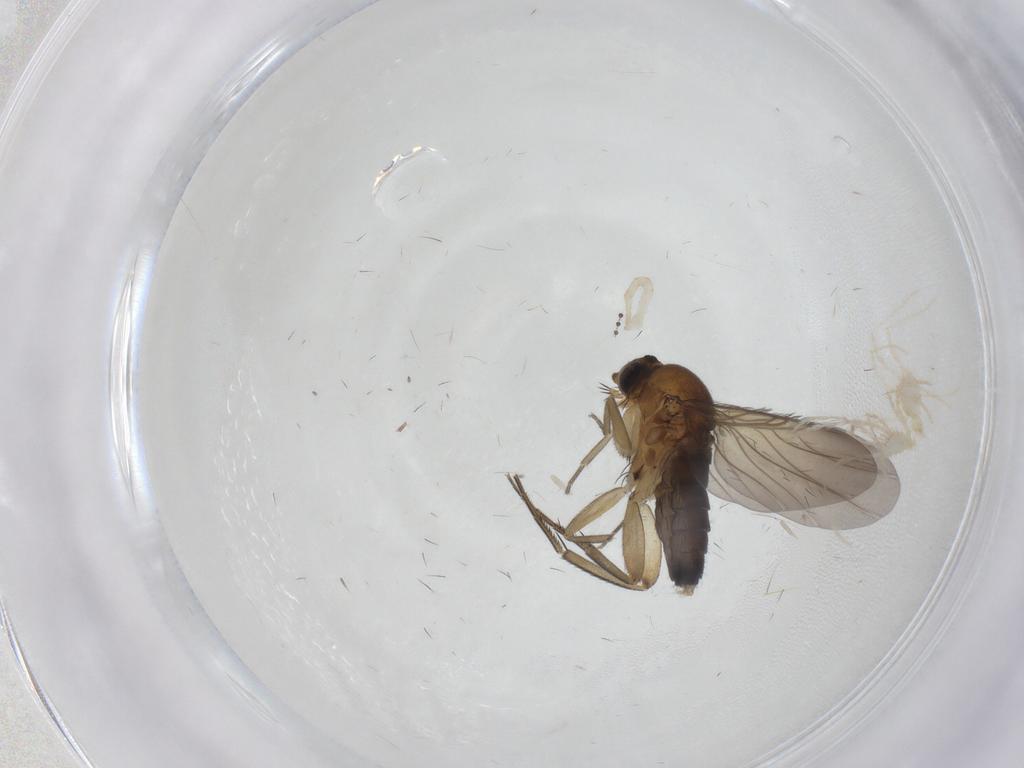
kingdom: Animalia
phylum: Arthropoda
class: Insecta
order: Diptera
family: Phoridae
